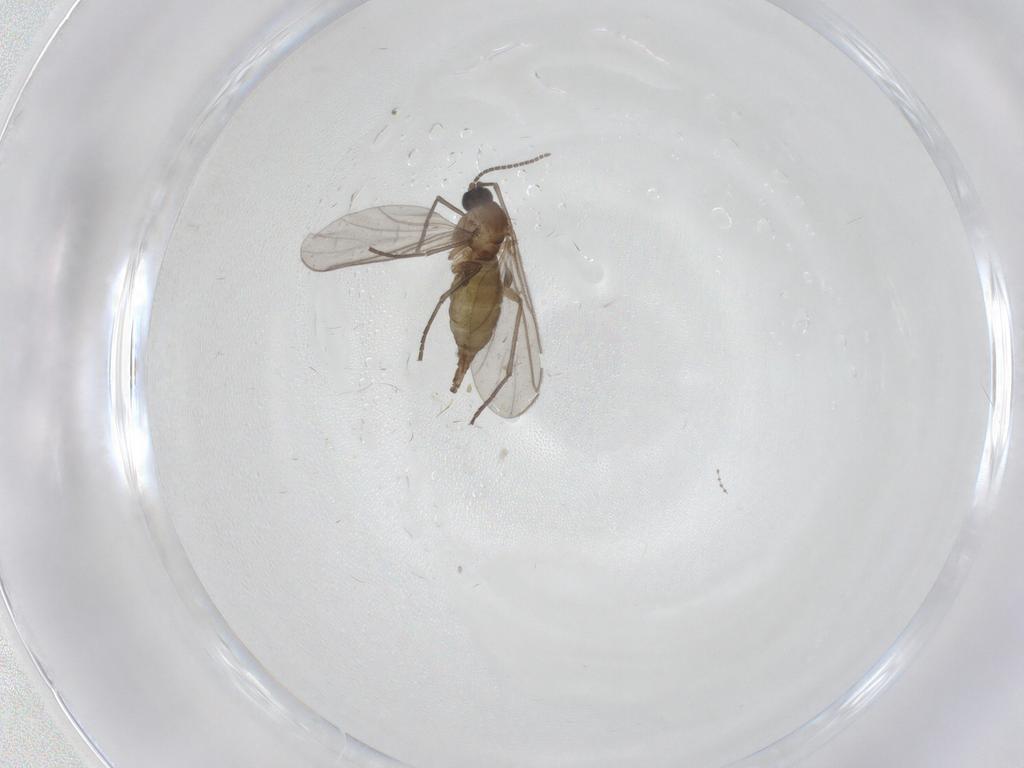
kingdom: Animalia
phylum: Arthropoda
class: Insecta
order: Diptera
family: Cecidomyiidae
